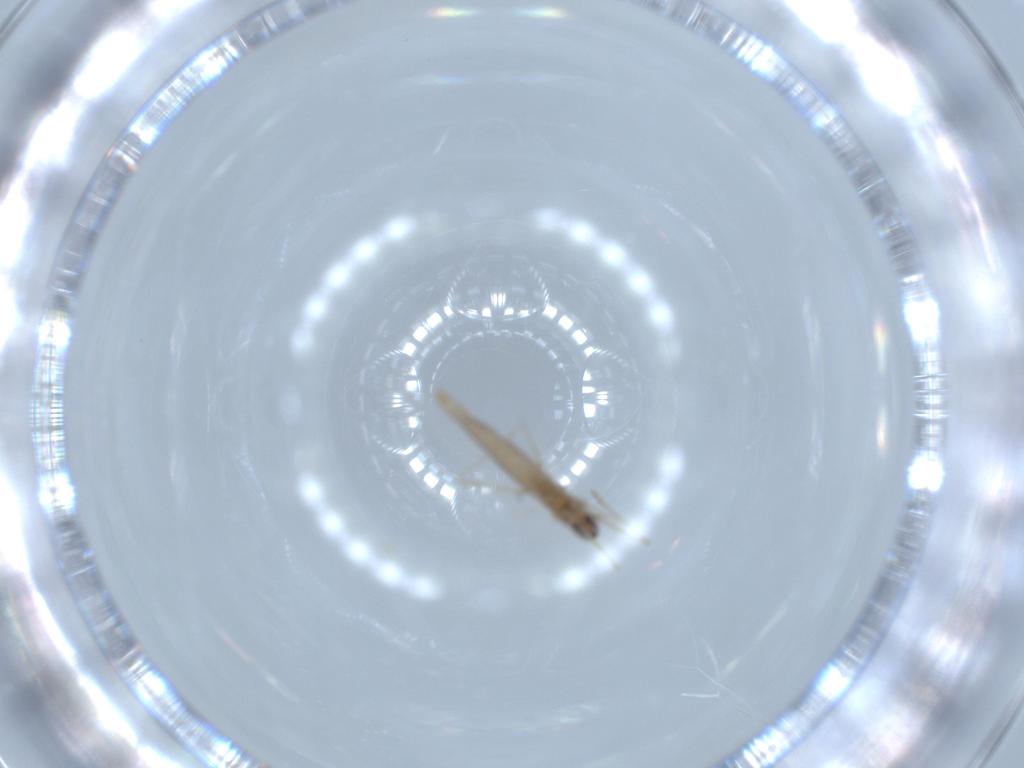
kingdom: Animalia
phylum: Arthropoda
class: Insecta
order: Diptera
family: Cecidomyiidae
